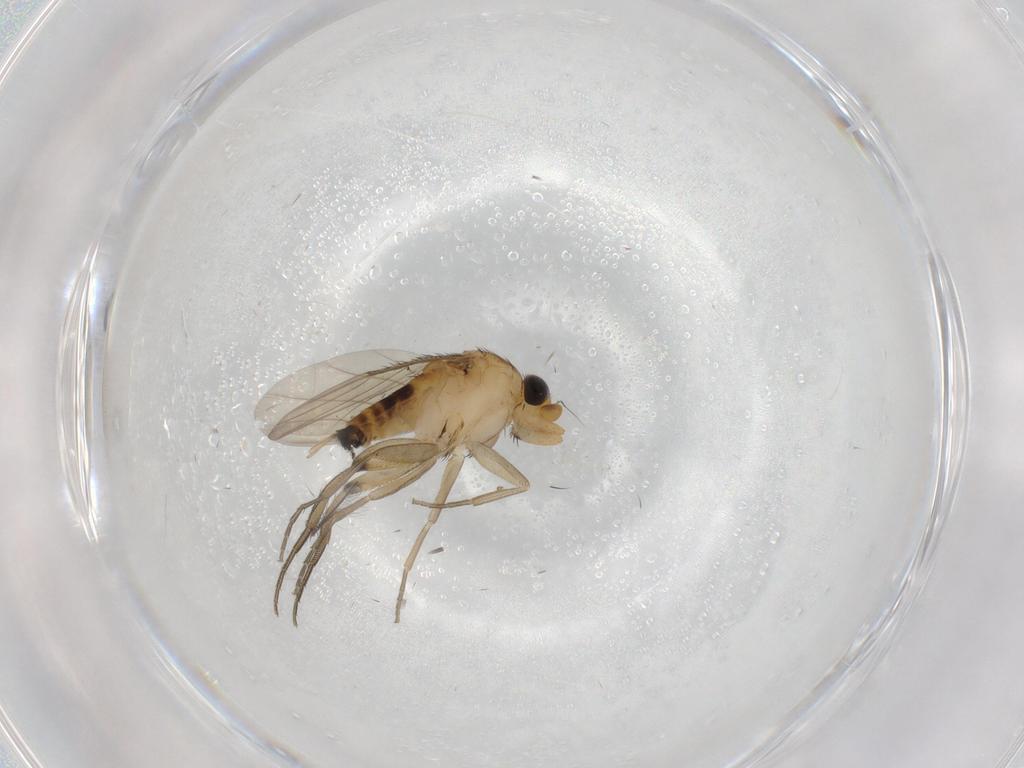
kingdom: Animalia
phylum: Arthropoda
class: Insecta
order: Diptera
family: Phoridae
